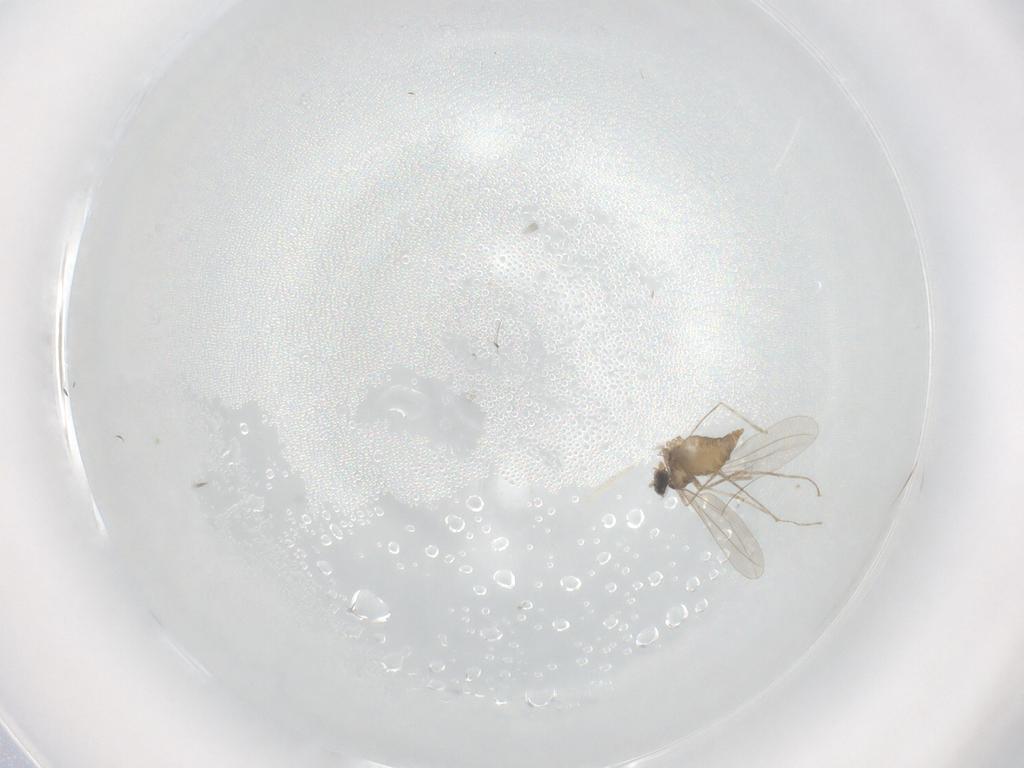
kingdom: Animalia
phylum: Arthropoda
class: Insecta
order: Diptera
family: Cecidomyiidae
